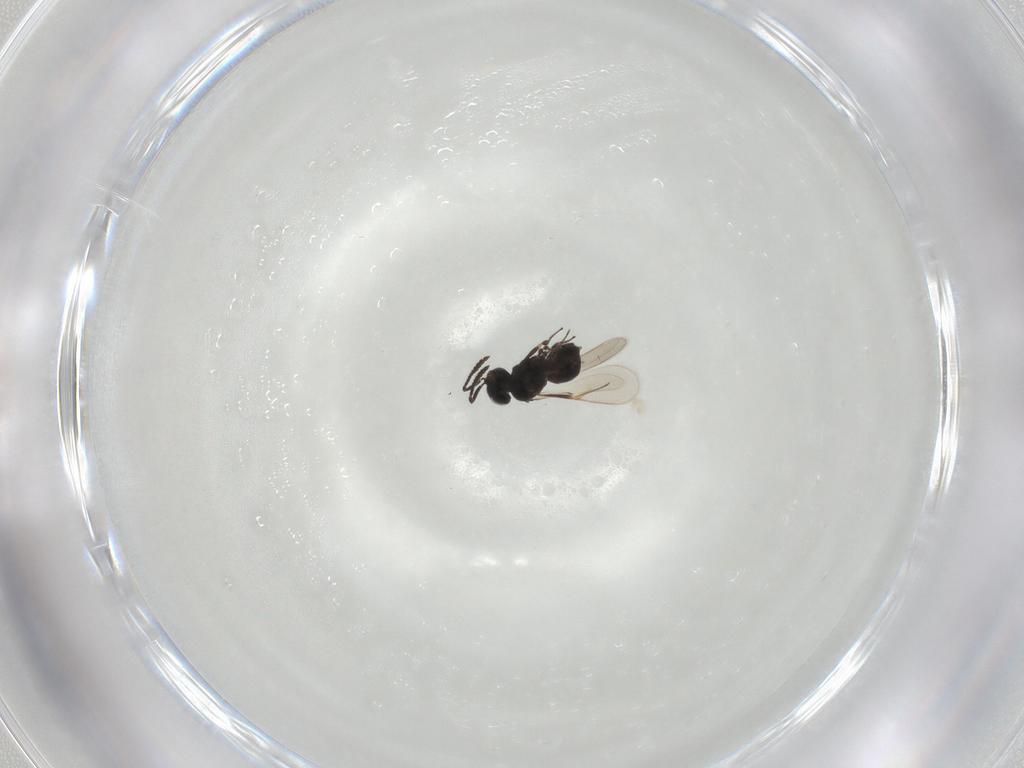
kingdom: Animalia
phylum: Arthropoda
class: Insecta
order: Hymenoptera
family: Scelionidae
